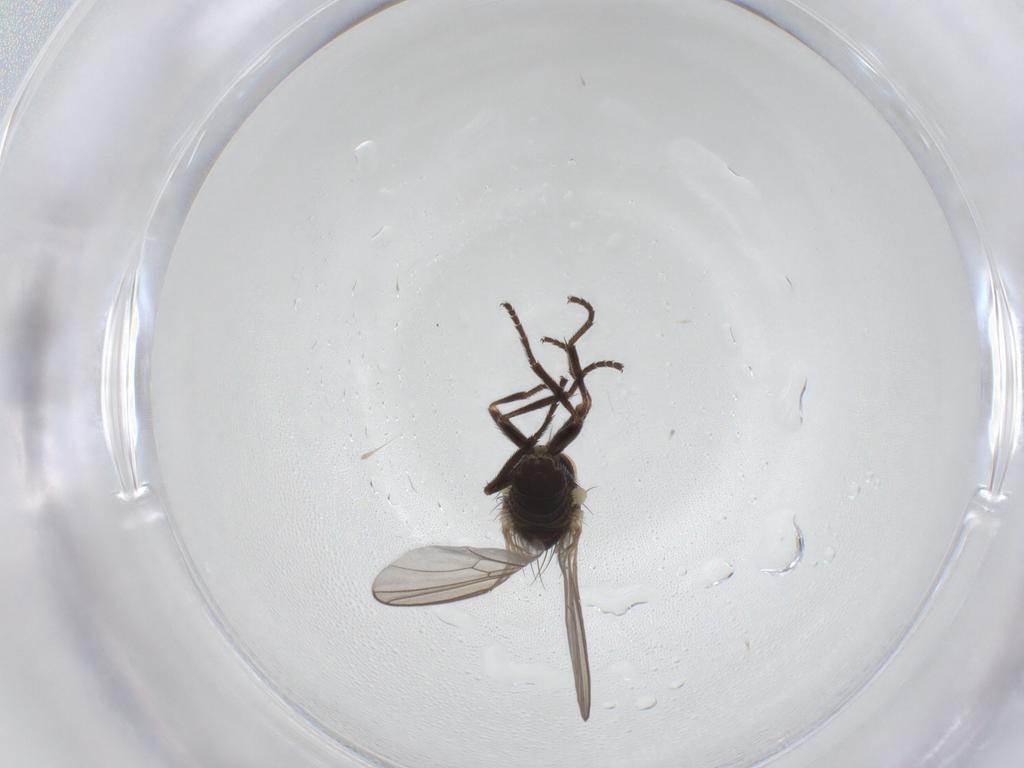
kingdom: Animalia
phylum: Arthropoda
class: Insecta
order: Diptera
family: Agromyzidae
